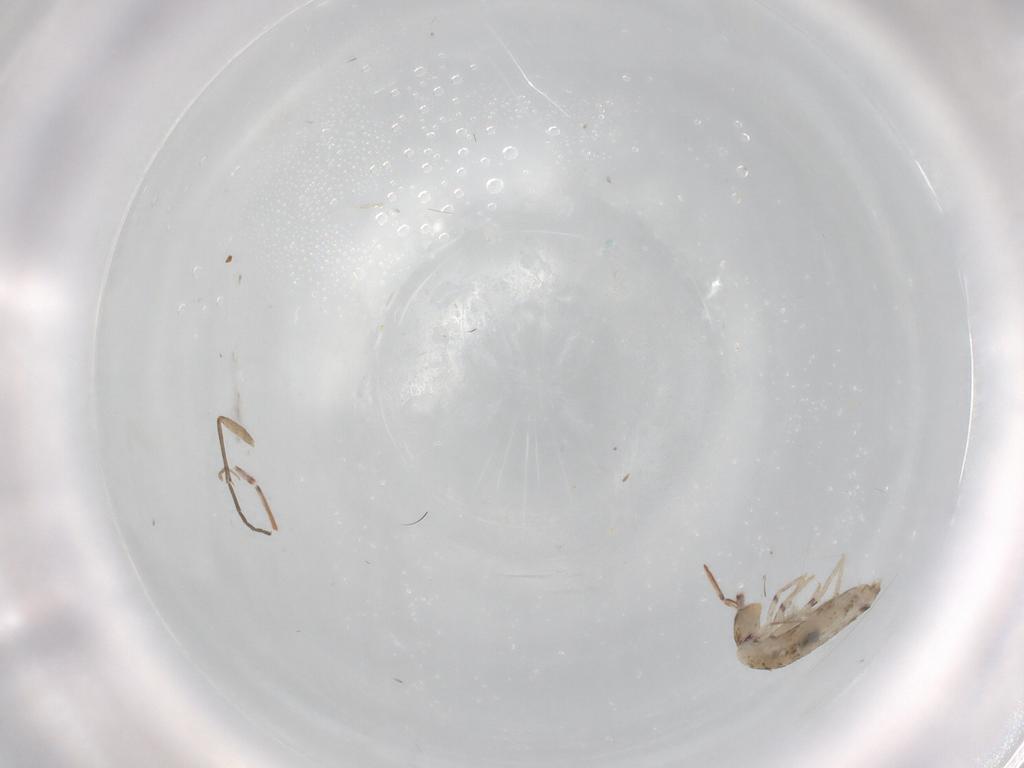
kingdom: Animalia
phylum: Arthropoda
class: Collembola
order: Entomobryomorpha
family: Entomobryidae
